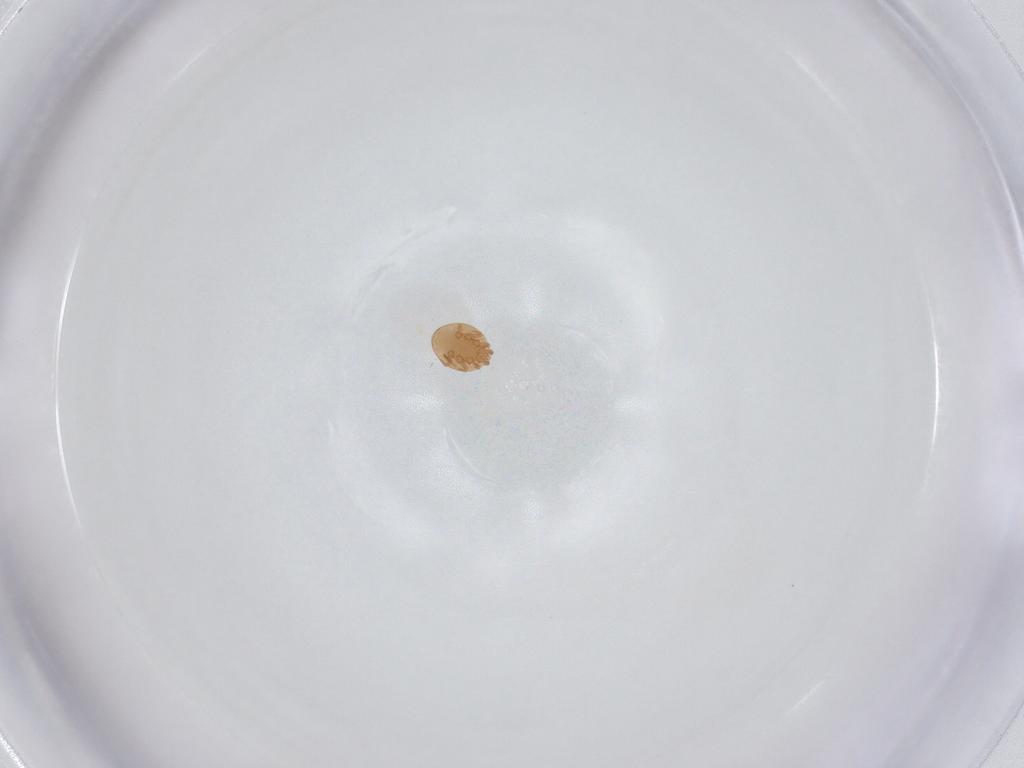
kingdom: Animalia
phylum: Arthropoda
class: Arachnida
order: Mesostigmata
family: Trematuridae
